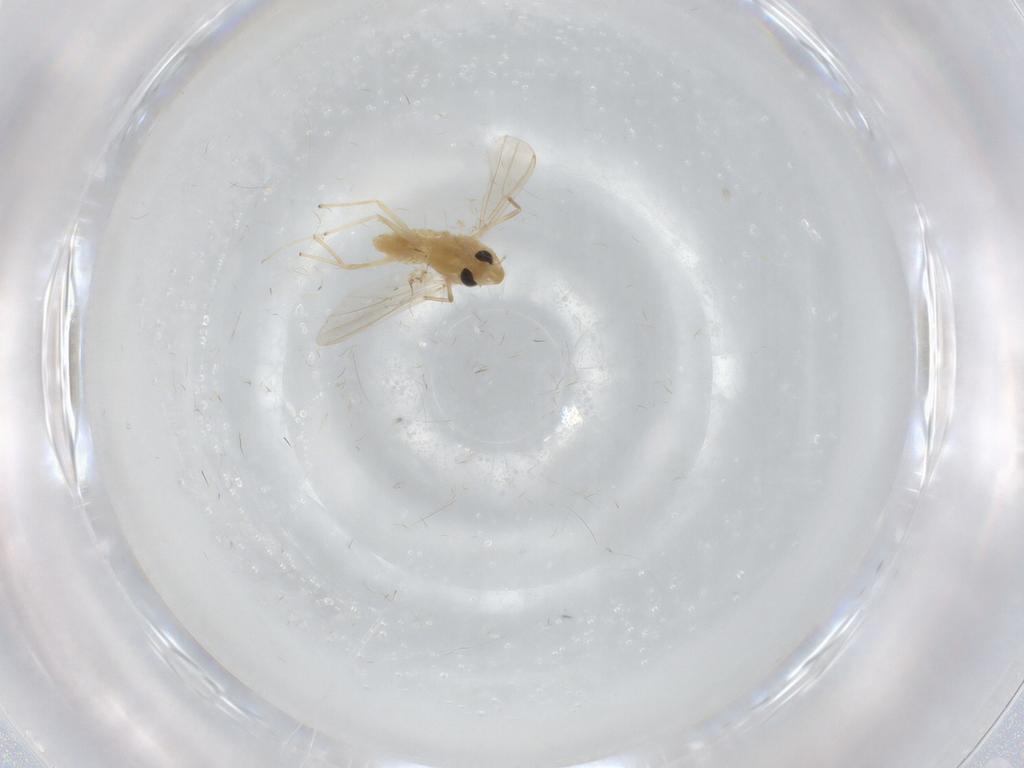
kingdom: Animalia
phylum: Arthropoda
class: Insecta
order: Diptera
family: Chironomidae
